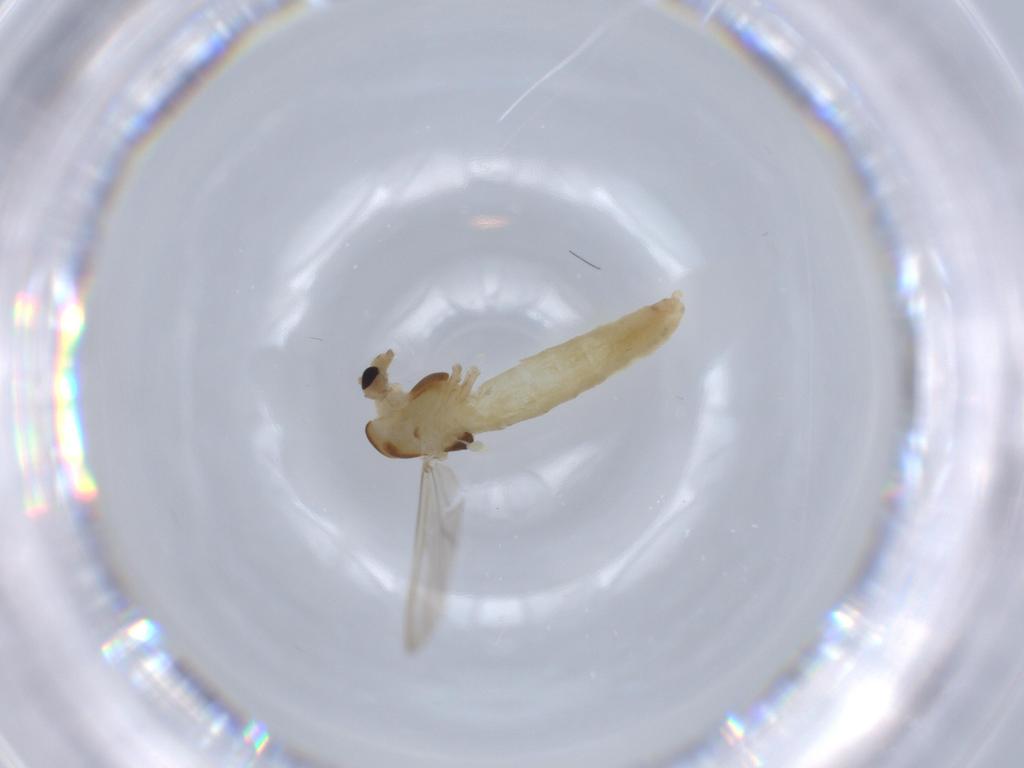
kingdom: Animalia
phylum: Arthropoda
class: Insecta
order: Diptera
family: Chironomidae
